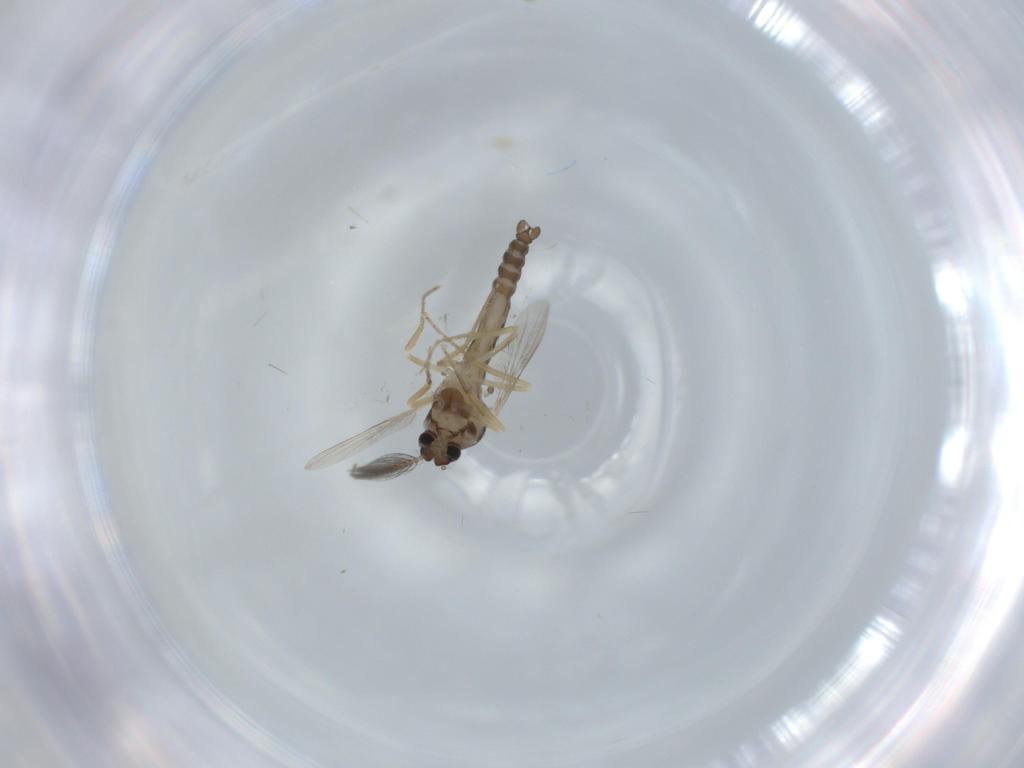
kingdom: Animalia
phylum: Arthropoda
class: Insecta
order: Diptera
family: Ceratopogonidae
